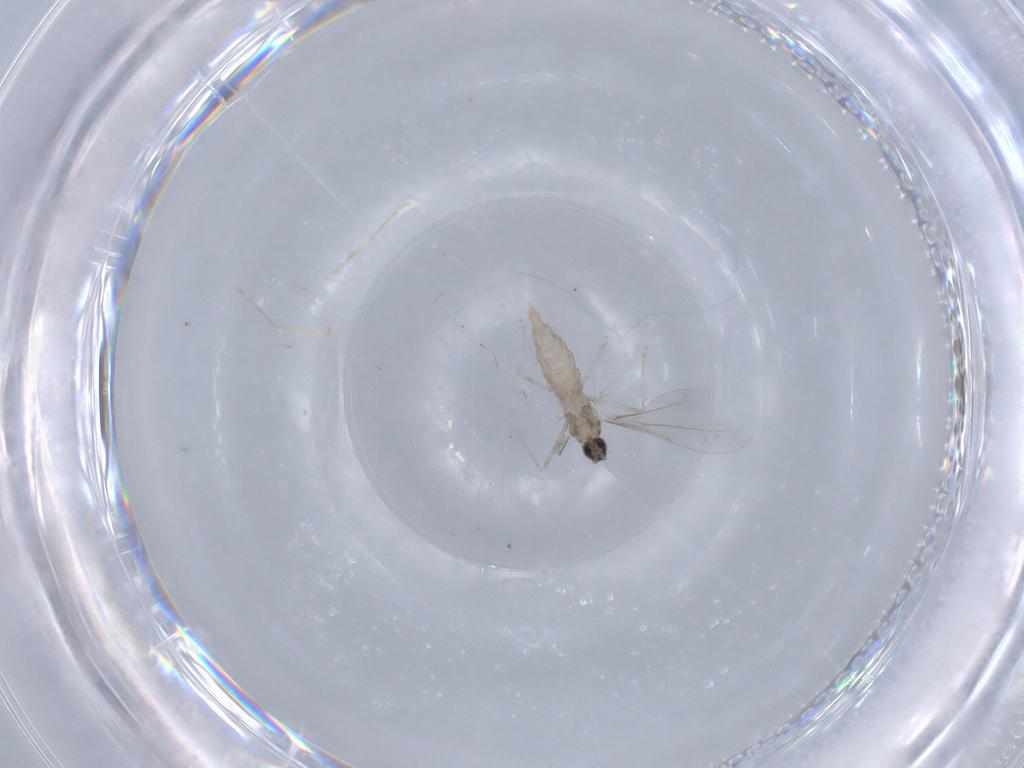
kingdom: Animalia
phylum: Arthropoda
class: Insecta
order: Diptera
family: Cecidomyiidae
